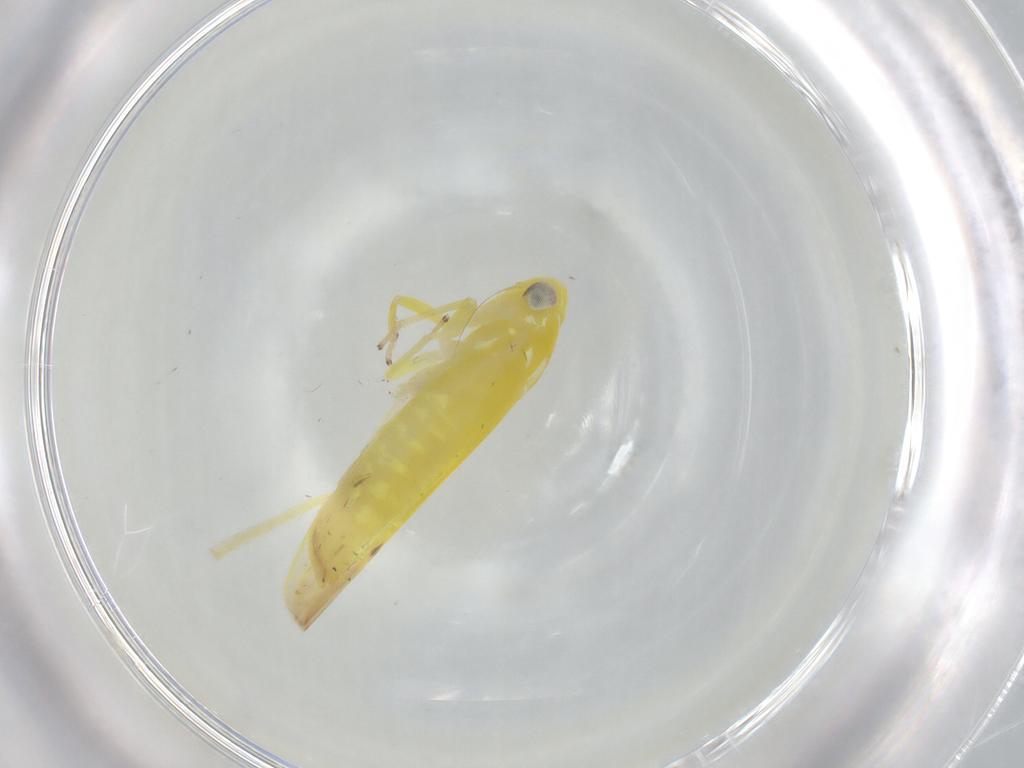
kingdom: Animalia
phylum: Arthropoda
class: Insecta
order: Hemiptera
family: Cicadellidae
